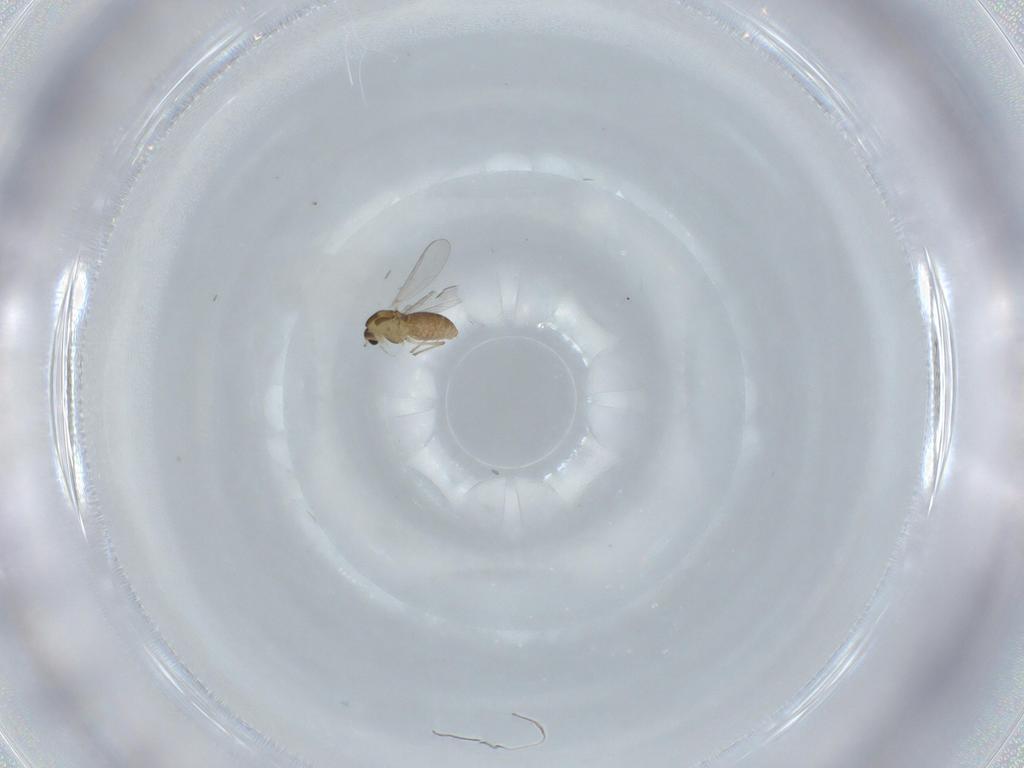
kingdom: Animalia
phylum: Arthropoda
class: Insecta
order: Diptera
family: Chironomidae
